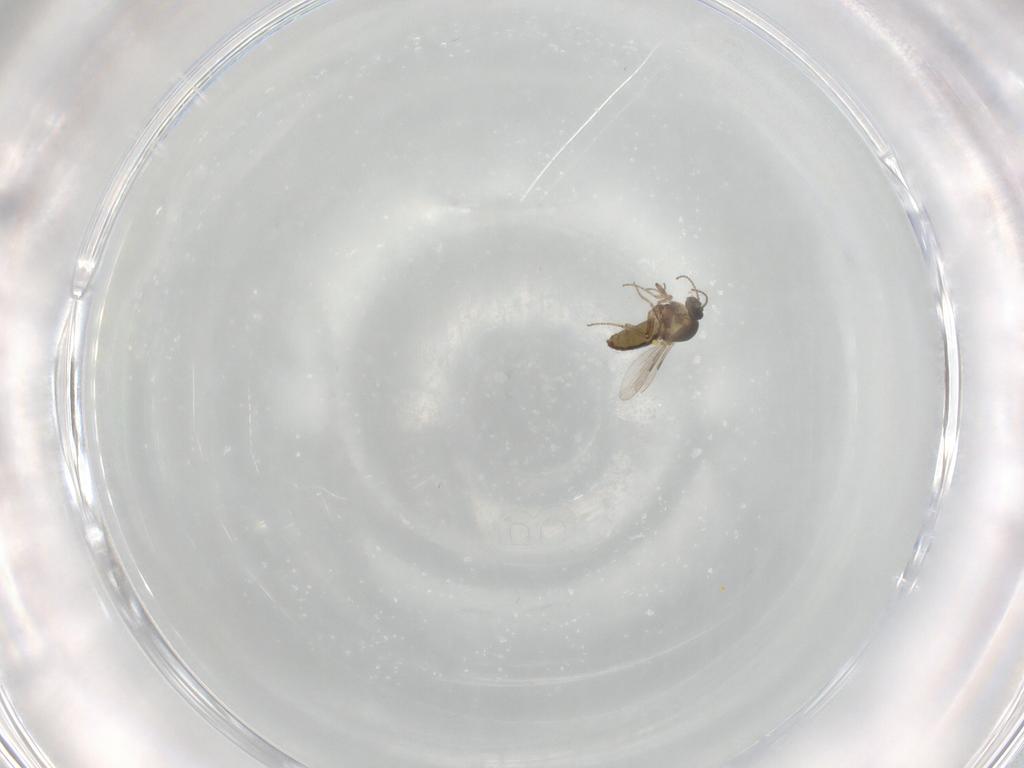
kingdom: Animalia
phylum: Arthropoda
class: Insecta
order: Diptera
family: Ceratopogonidae
